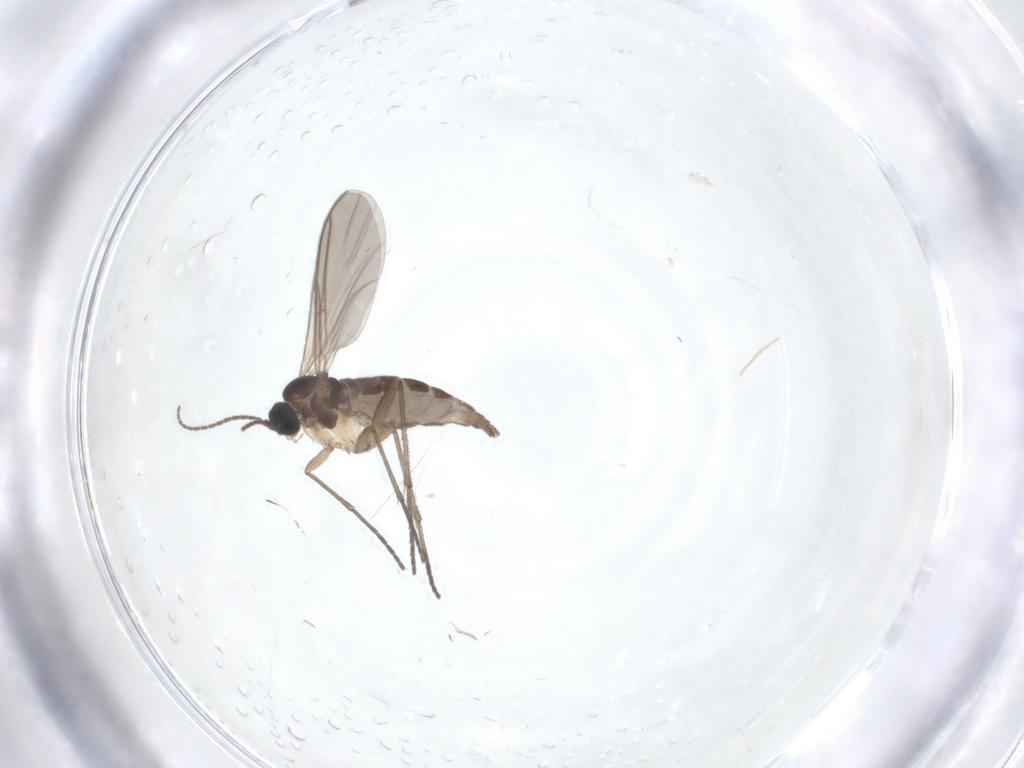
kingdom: Animalia
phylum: Arthropoda
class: Insecta
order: Diptera
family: Sciaridae
